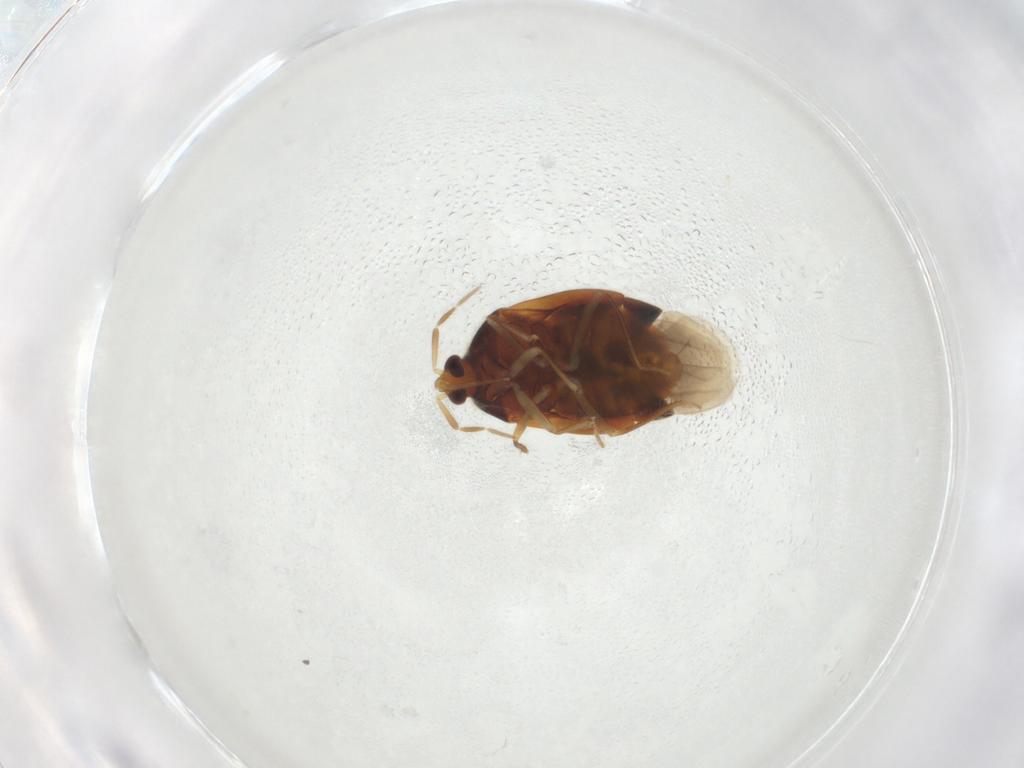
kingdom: Animalia
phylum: Arthropoda
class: Insecta
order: Hemiptera
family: Anthocoridae
